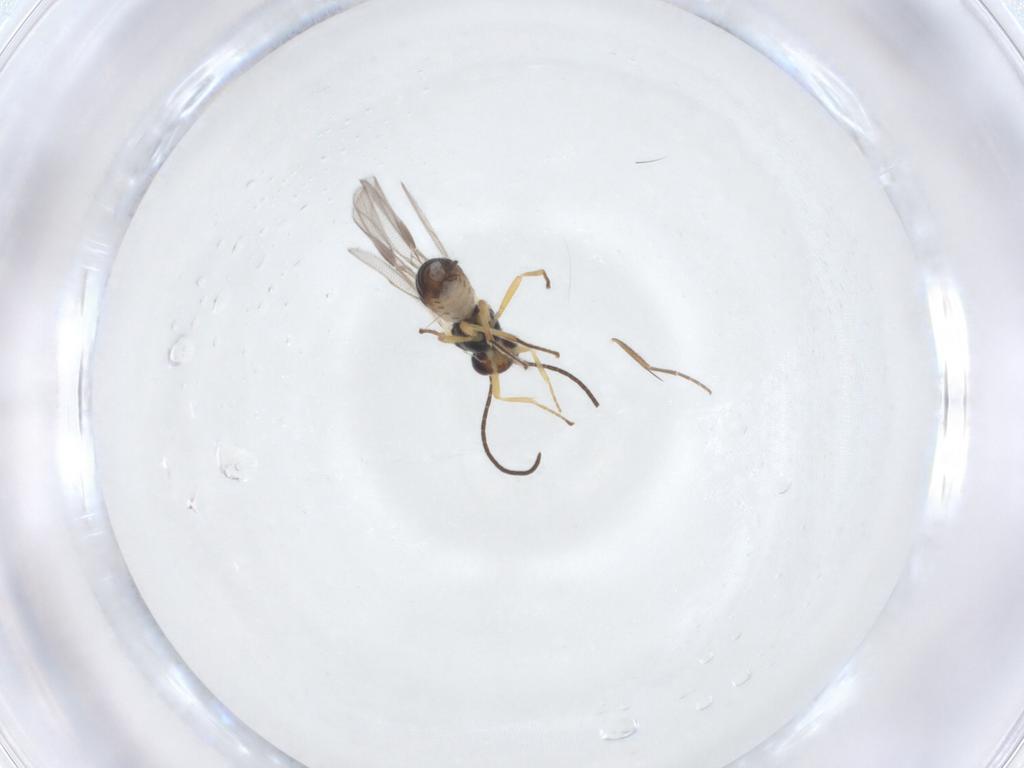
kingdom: Animalia
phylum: Arthropoda
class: Insecta
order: Hymenoptera
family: Braconidae
